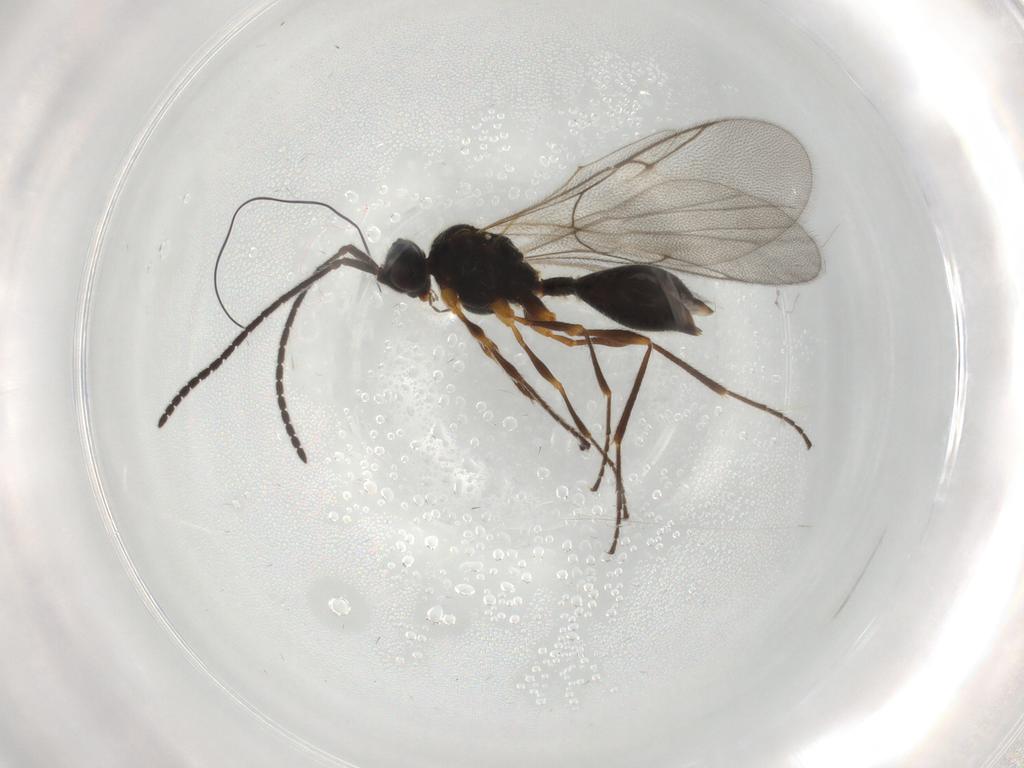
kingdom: Animalia
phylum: Arthropoda
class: Insecta
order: Hymenoptera
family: Diapriidae
